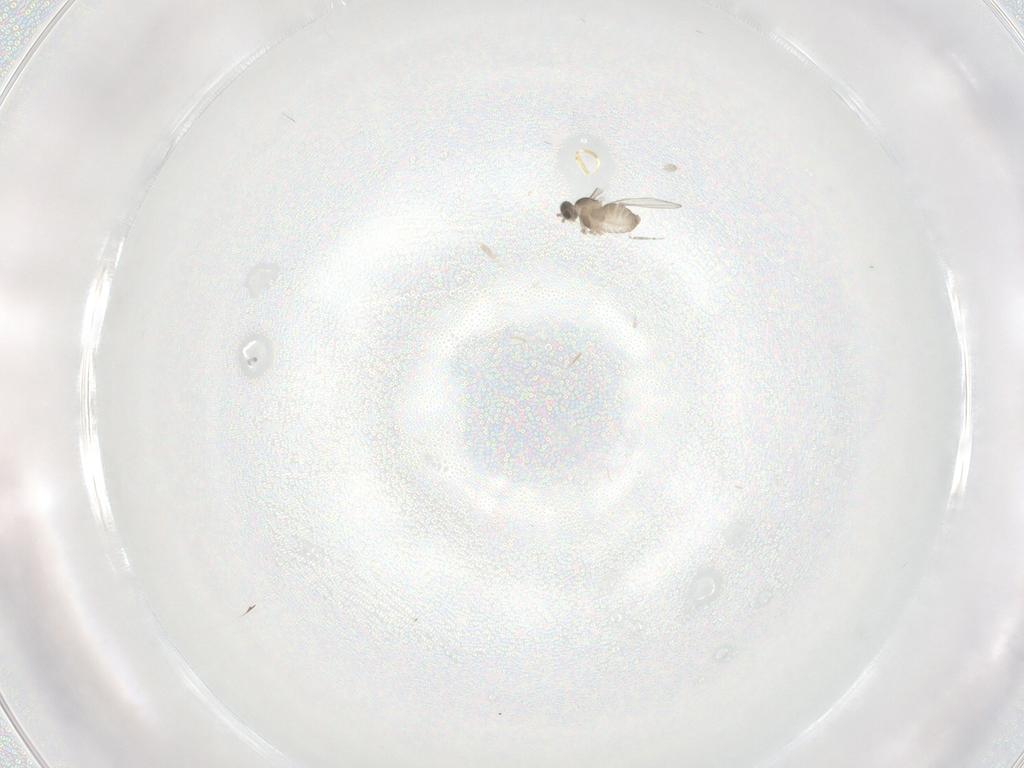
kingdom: Animalia
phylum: Arthropoda
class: Insecta
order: Diptera
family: Cecidomyiidae
